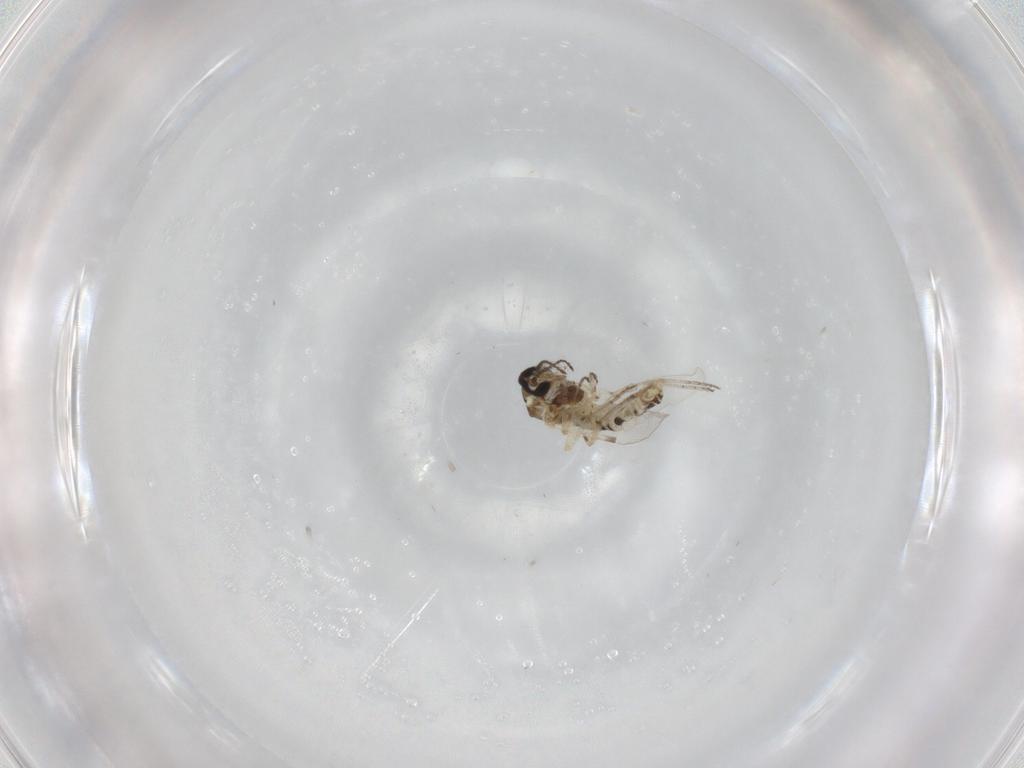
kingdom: Animalia
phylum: Arthropoda
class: Insecta
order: Diptera
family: Ceratopogonidae
